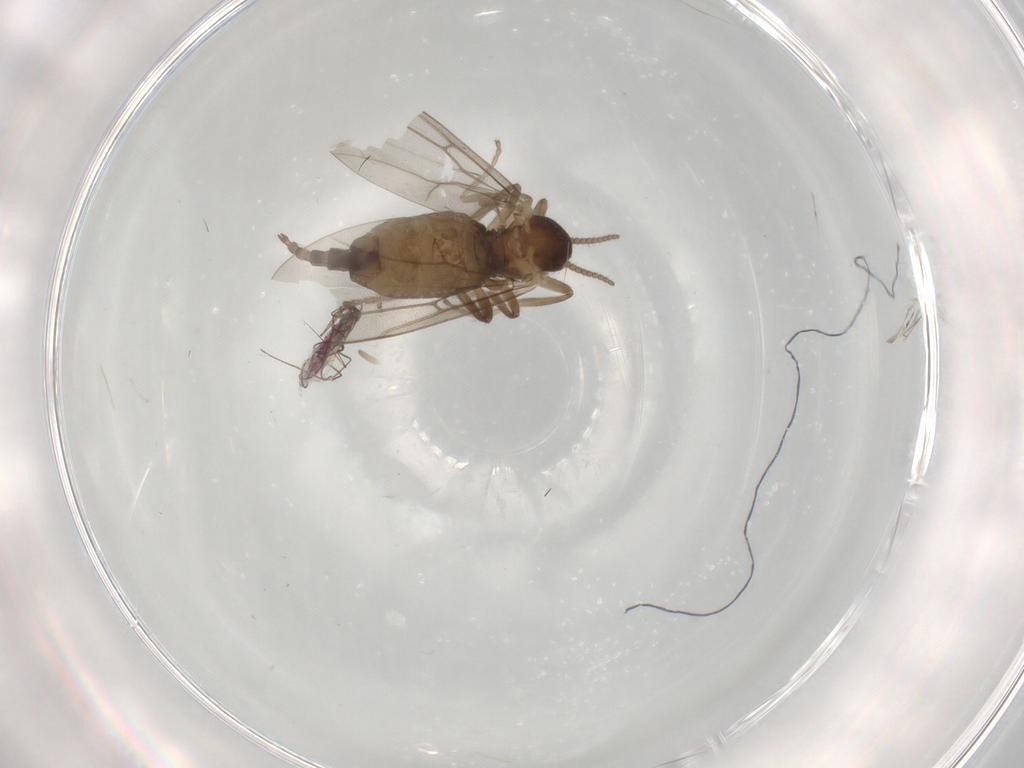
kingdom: Animalia
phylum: Arthropoda
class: Insecta
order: Diptera
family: Cecidomyiidae
